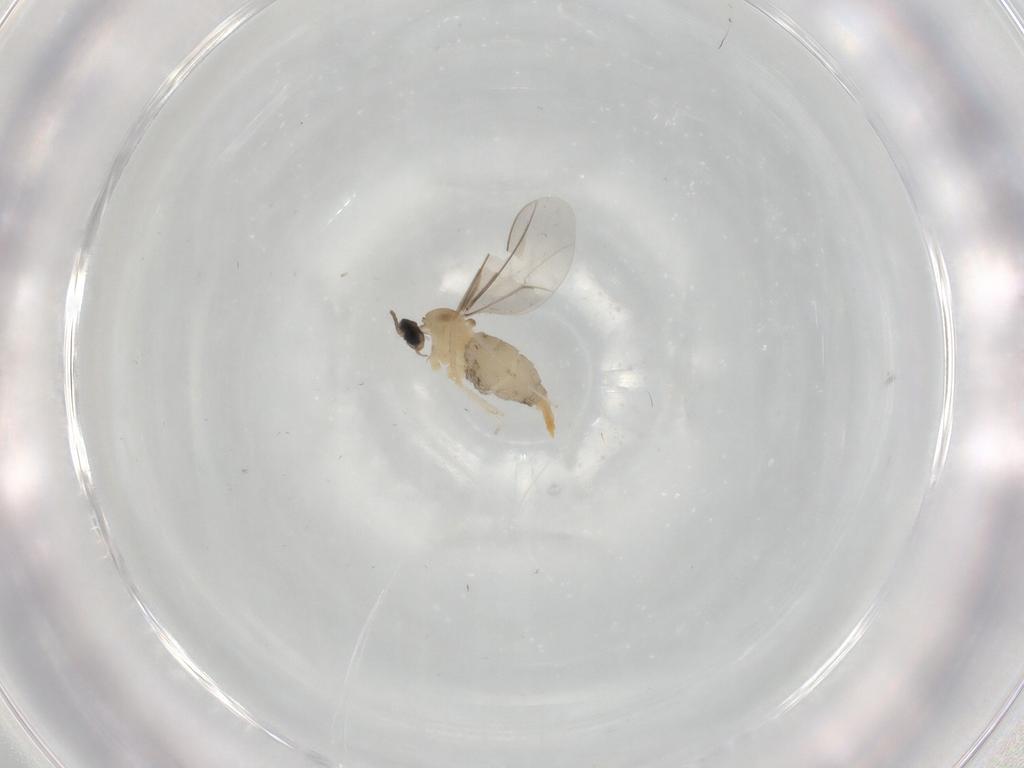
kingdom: Animalia
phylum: Arthropoda
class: Insecta
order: Diptera
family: Cecidomyiidae
